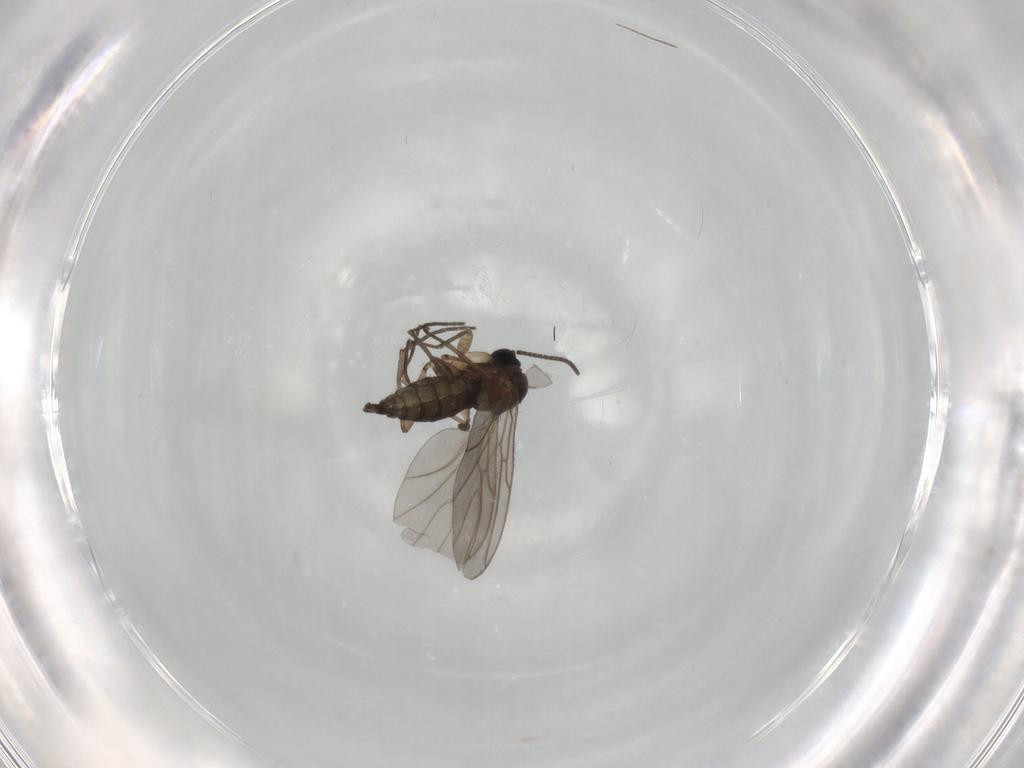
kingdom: Animalia
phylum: Arthropoda
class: Insecta
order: Diptera
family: Sciaridae
